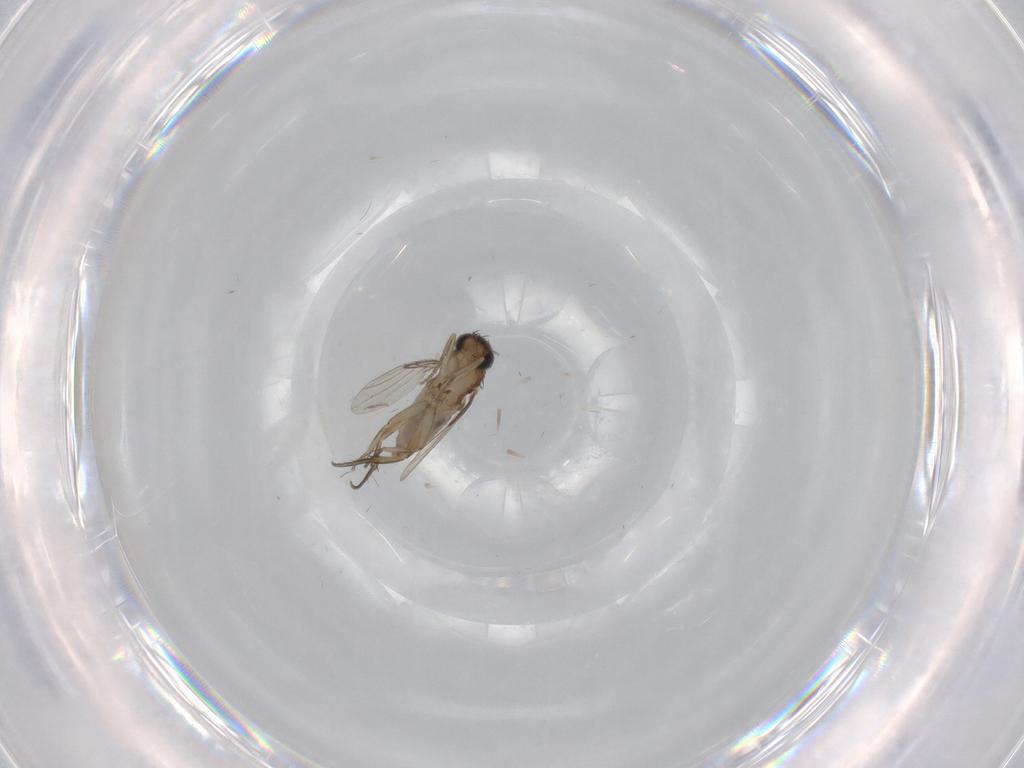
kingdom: Animalia
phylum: Arthropoda
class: Insecta
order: Diptera
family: Phoridae
